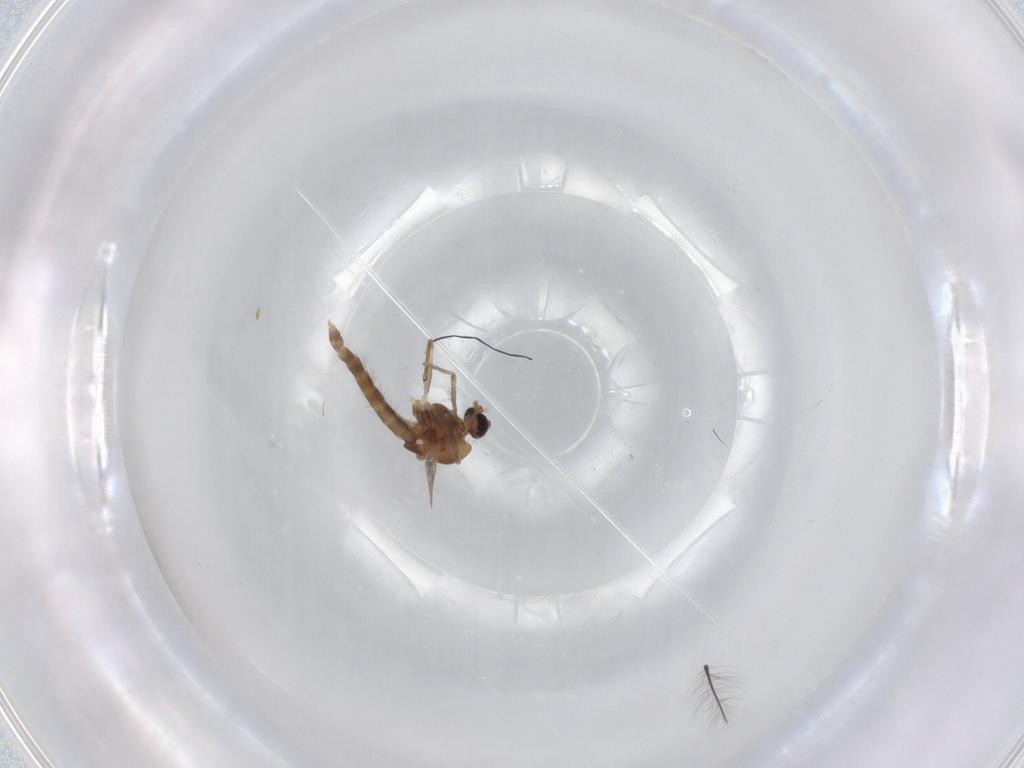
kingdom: Animalia
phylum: Arthropoda
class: Insecta
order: Diptera
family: Chironomidae
